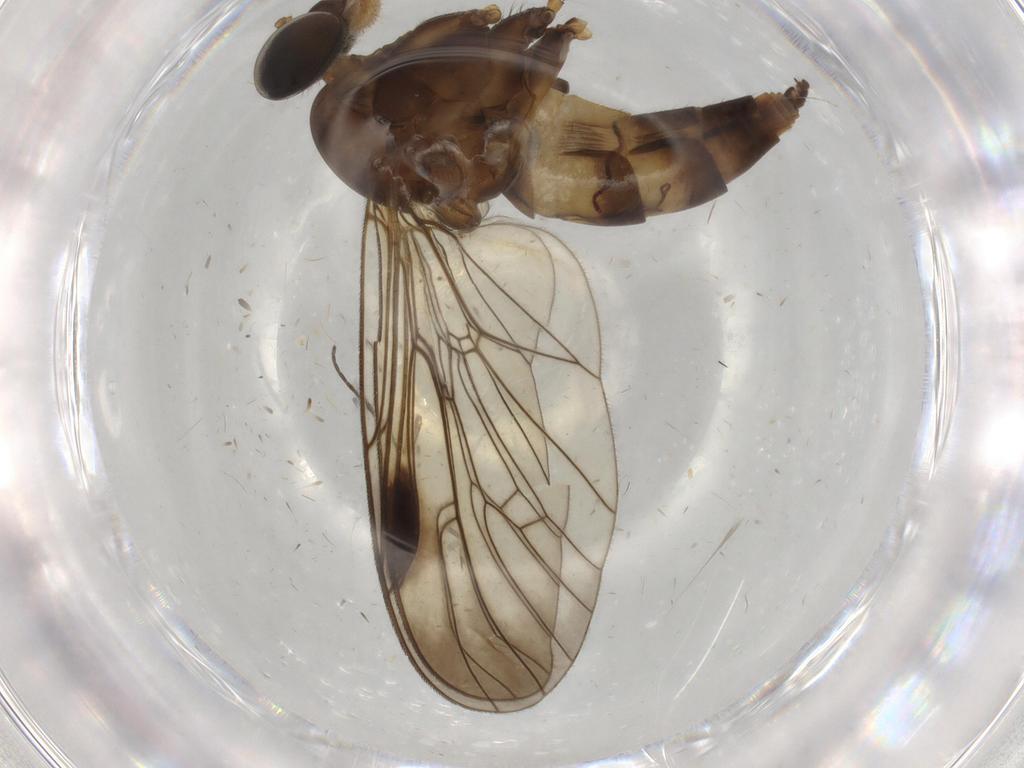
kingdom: Animalia
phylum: Arthropoda
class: Insecta
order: Diptera
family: Chironomidae
